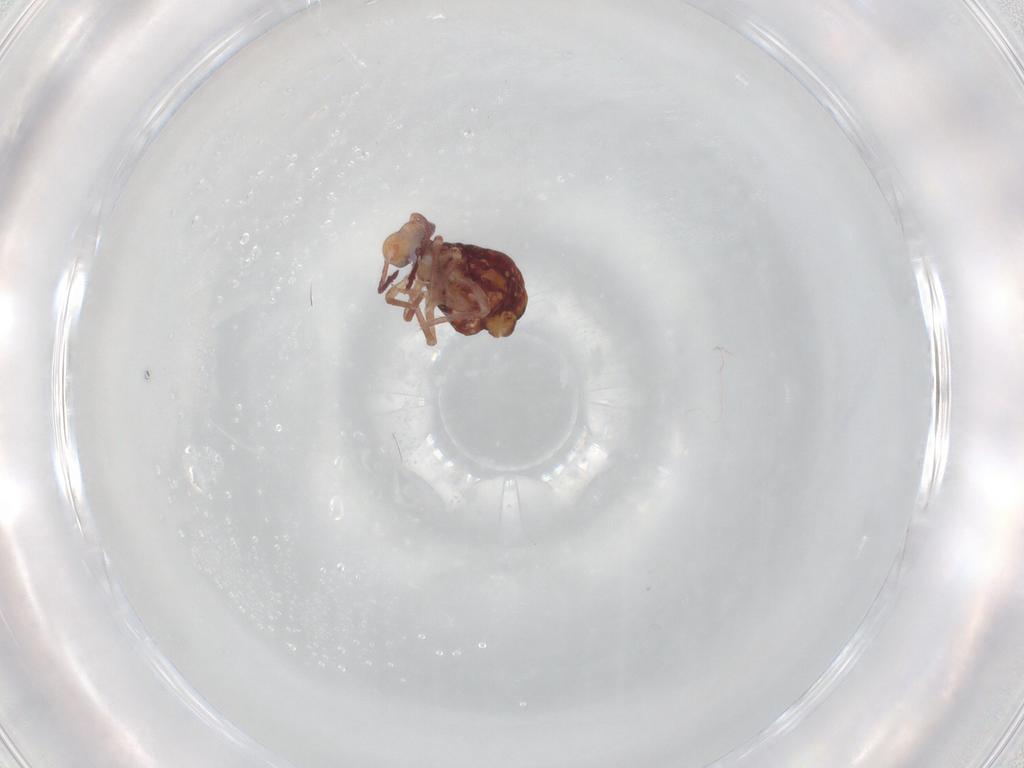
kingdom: Animalia
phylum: Arthropoda
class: Collembola
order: Symphypleona
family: Dicyrtomidae
